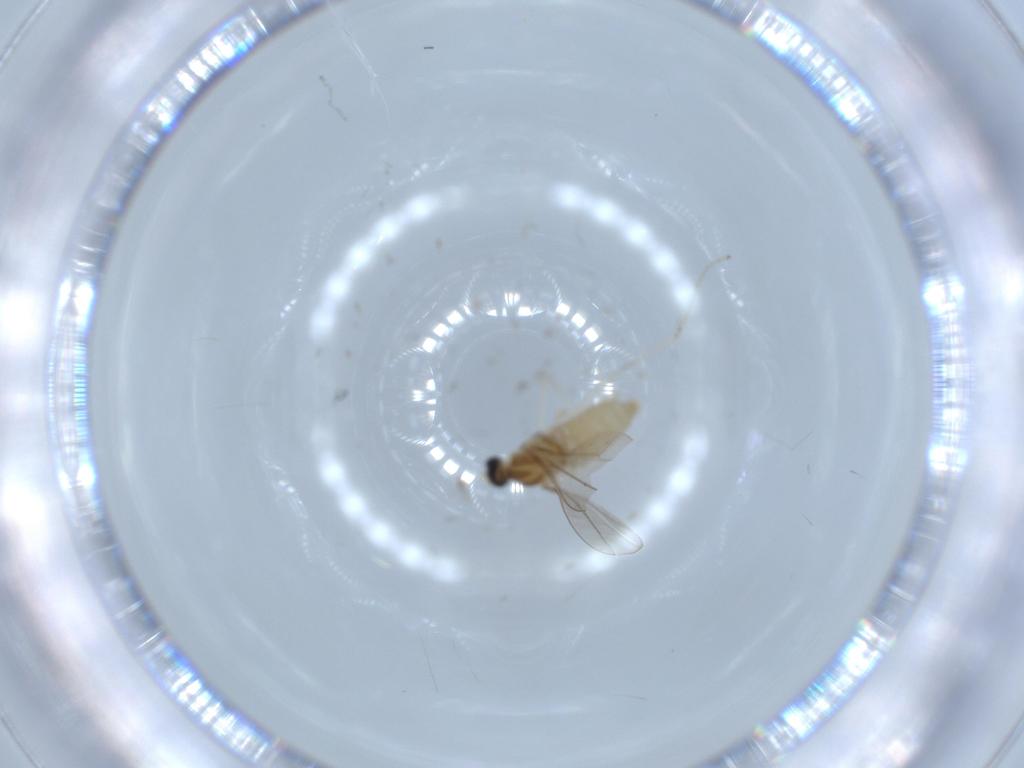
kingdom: Animalia
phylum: Arthropoda
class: Insecta
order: Diptera
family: Cecidomyiidae
